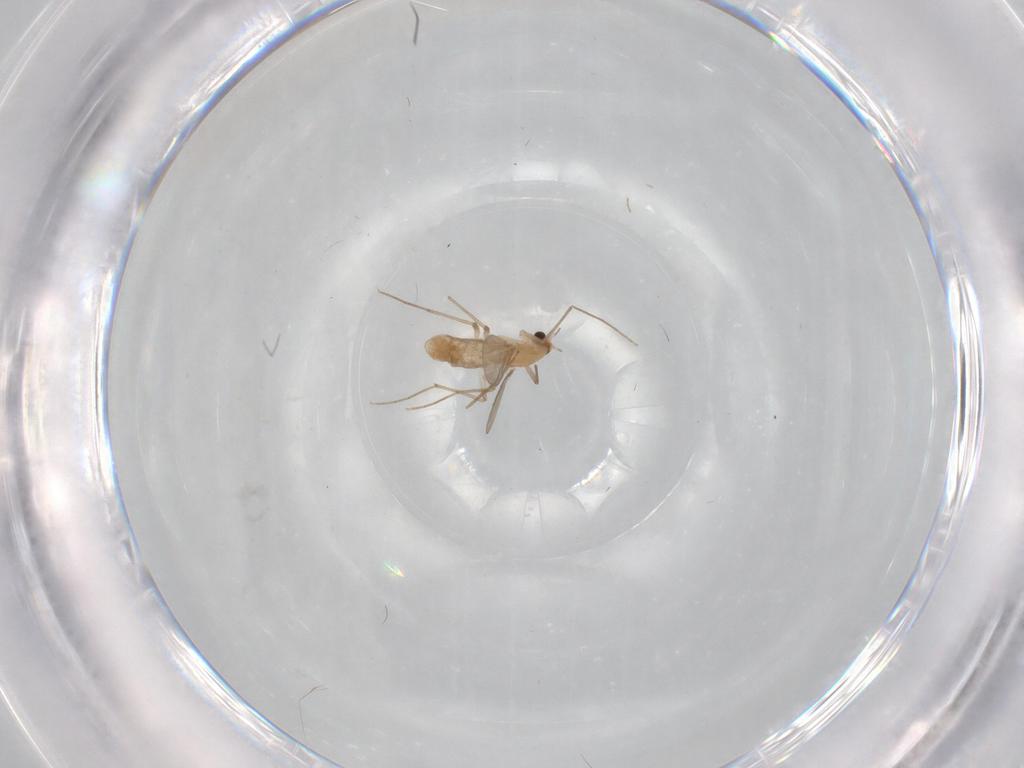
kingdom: Animalia
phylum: Arthropoda
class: Insecta
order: Diptera
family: Chironomidae
